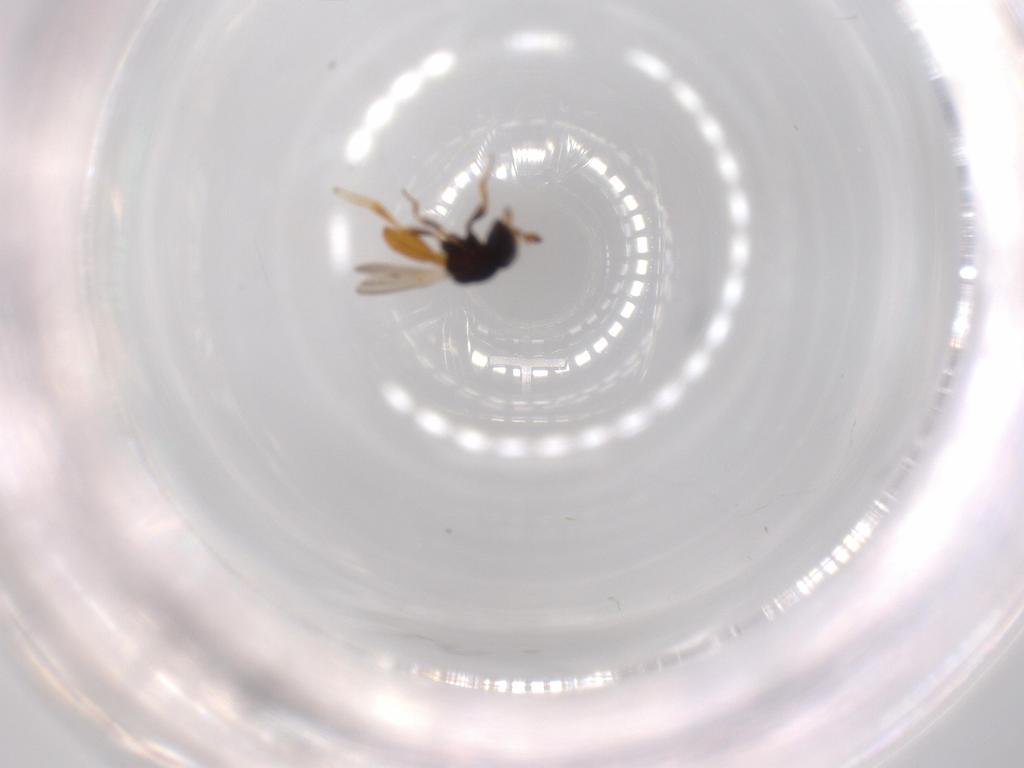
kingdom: Animalia
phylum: Arthropoda
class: Insecta
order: Hymenoptera
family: Scelionidae
